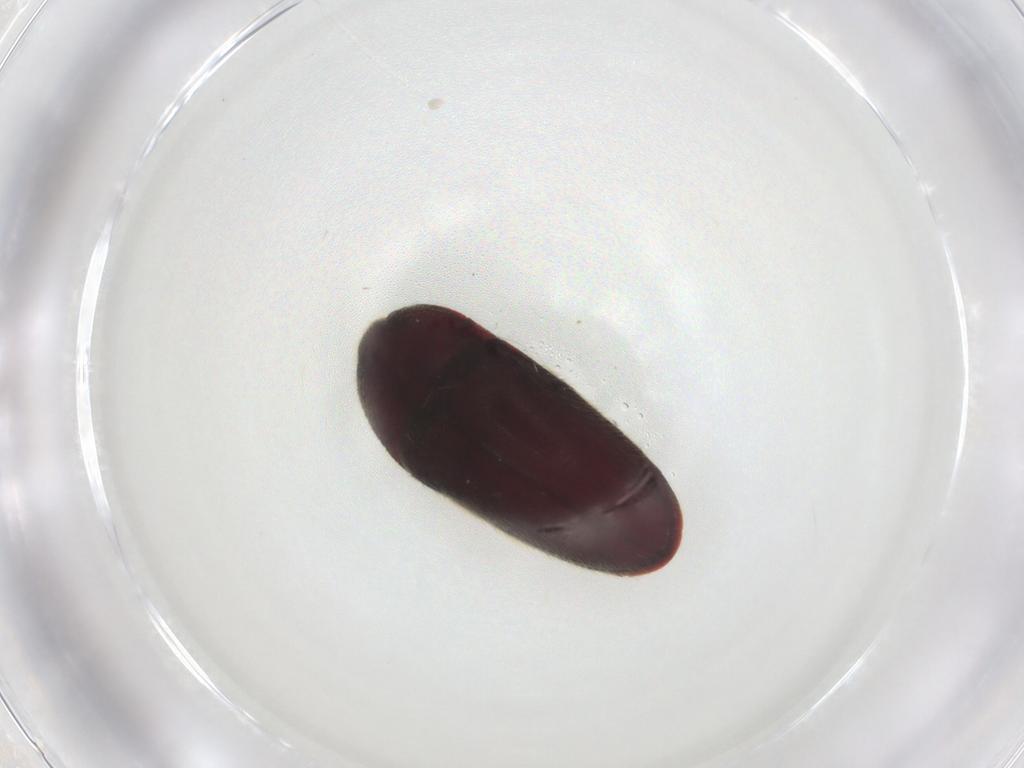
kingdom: Animalia
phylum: Arthropoda
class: Insecta
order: Coleoptera
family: Throscidae
